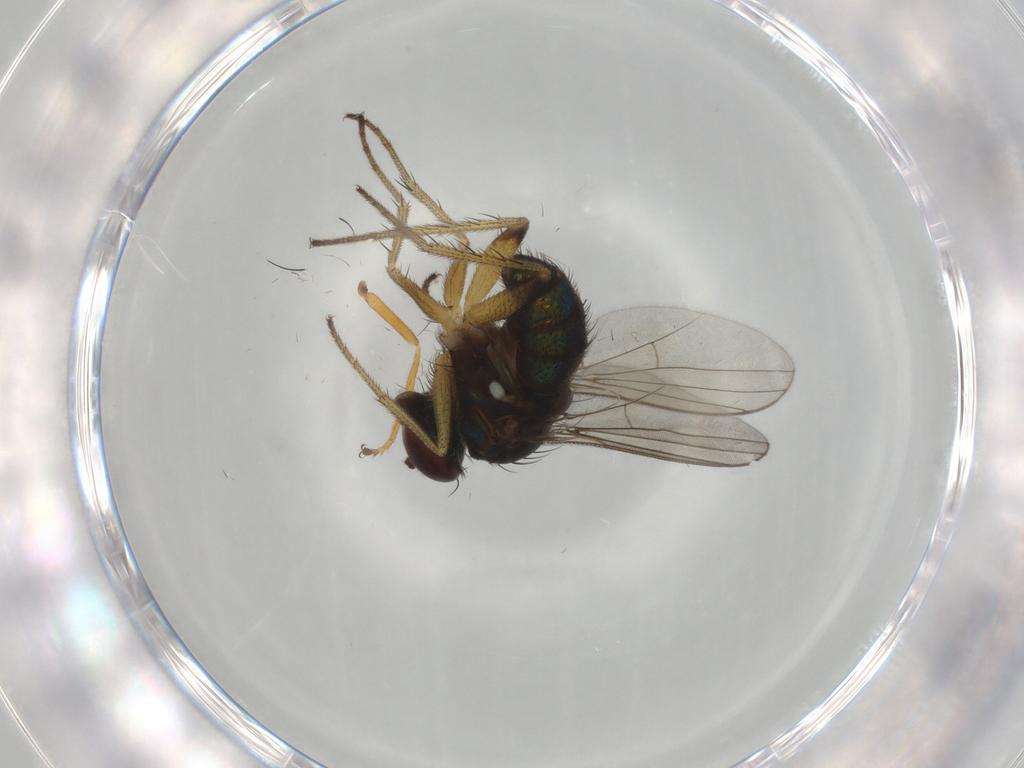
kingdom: Animalia
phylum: Arthropoda
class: Insecta
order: Diptera
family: Dolichopodidae
